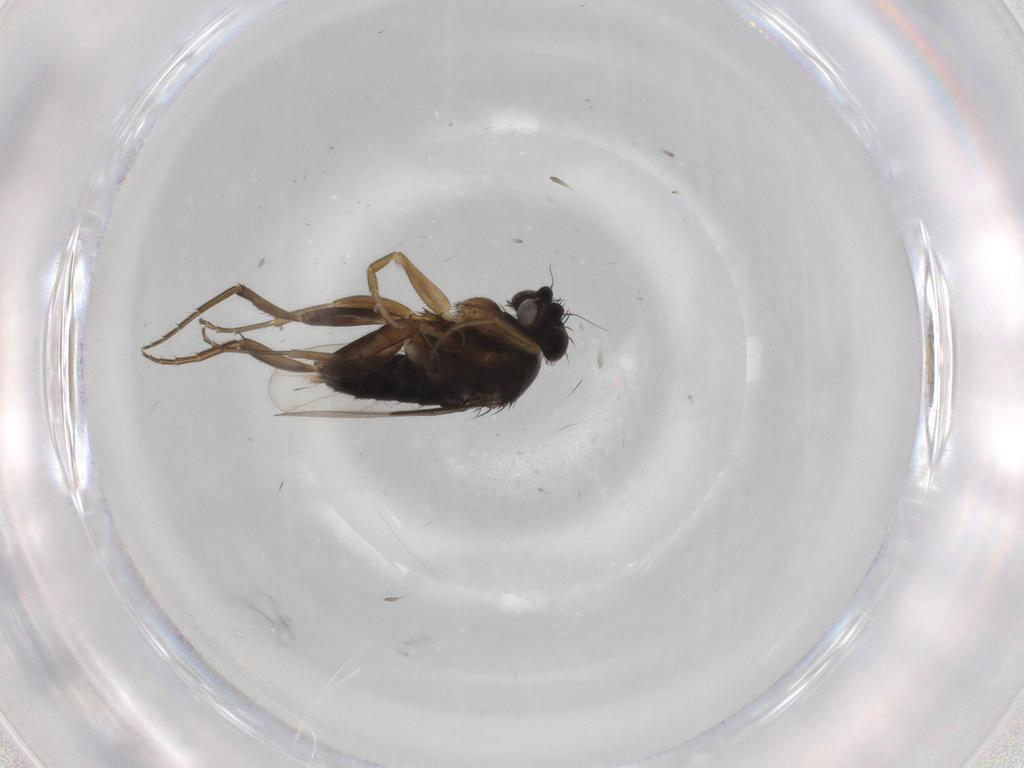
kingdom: Animalia
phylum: Arthropoda
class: Insecta
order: Diptera
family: Phoridae
